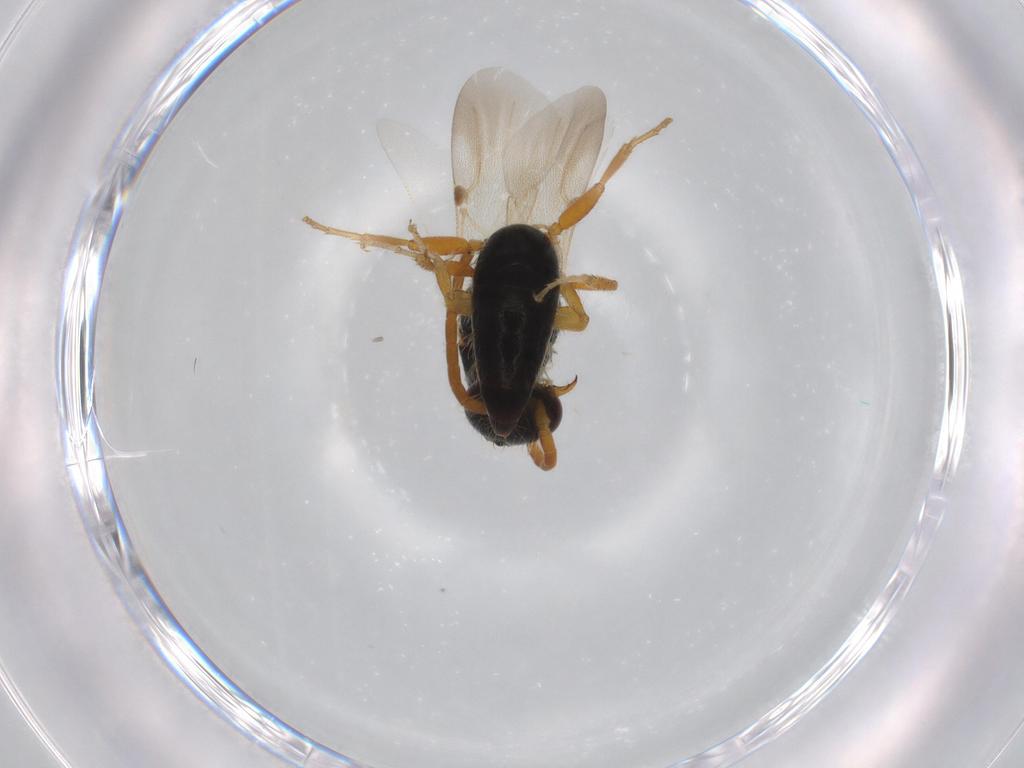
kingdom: Animalia
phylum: Arthropoda
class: Insecta
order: Hymenoptera
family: Bethylidae
